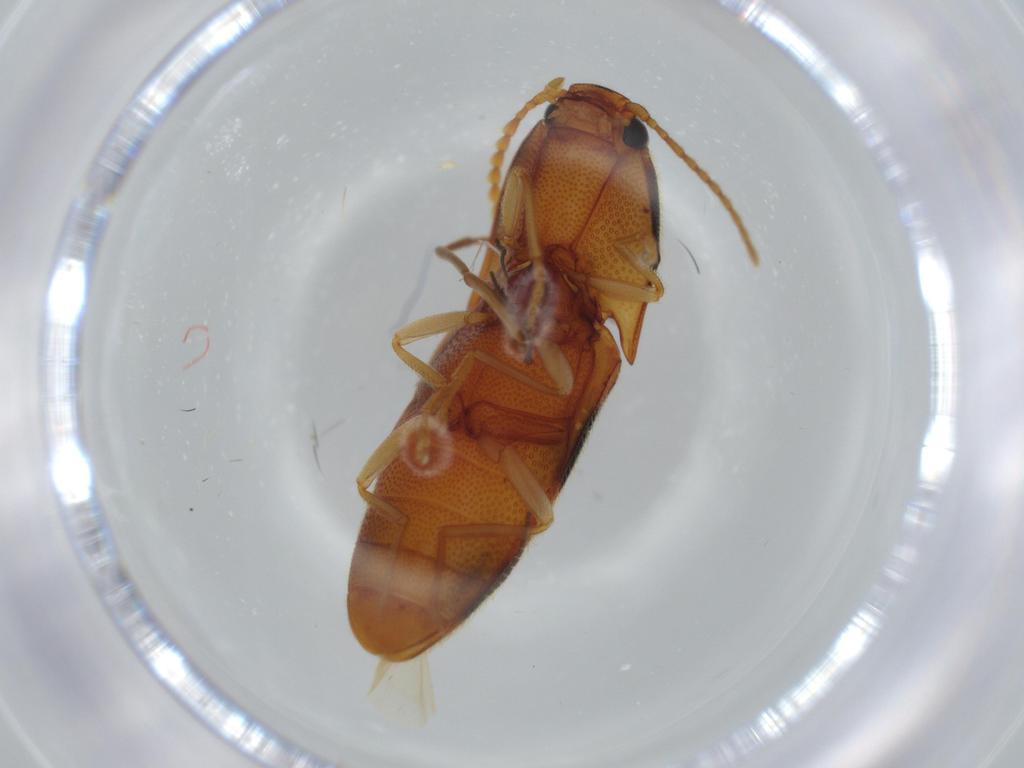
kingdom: Animalia
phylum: Arthropoda
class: Insecta
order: Coleoptera
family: Elateridae
